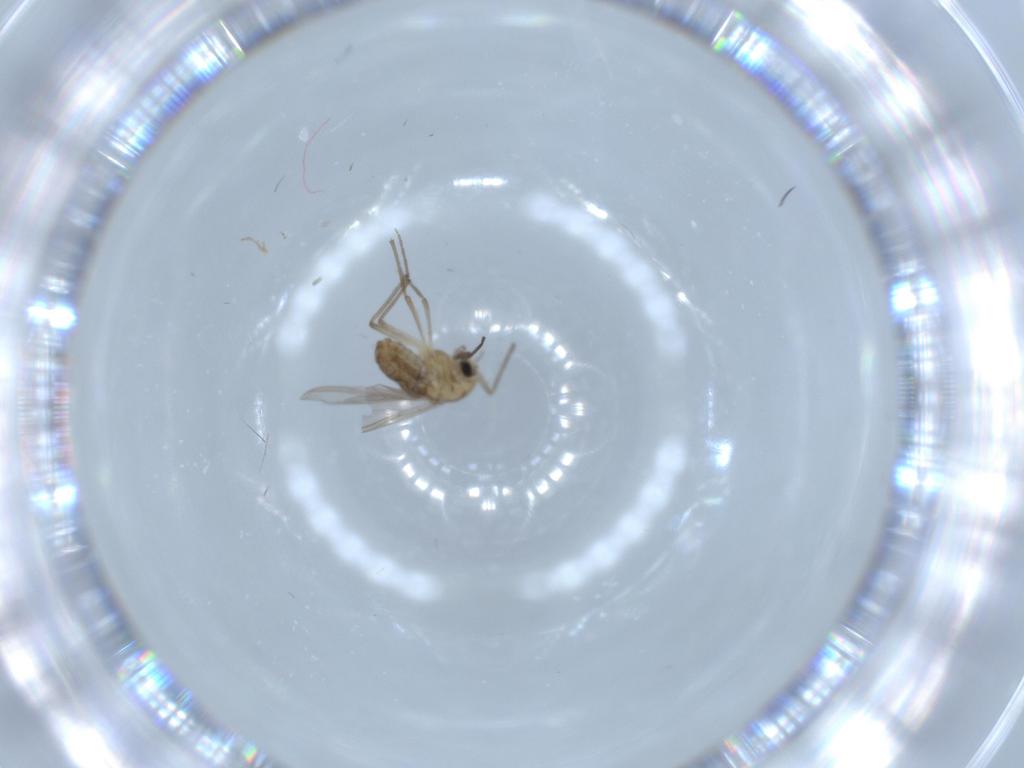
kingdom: Animalia
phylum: Arthropoda
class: Insecta
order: Diptera
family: Chironomidae
